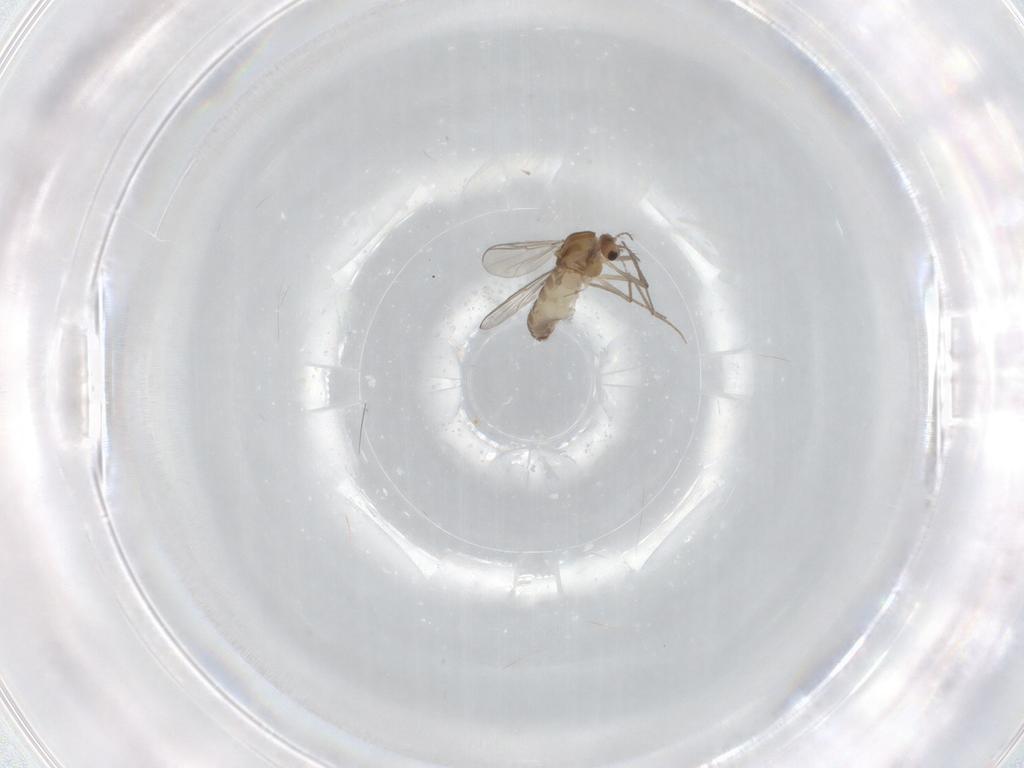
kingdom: Animalia
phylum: Arthropoda
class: Insecta
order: Diptera
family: Chironomidae
